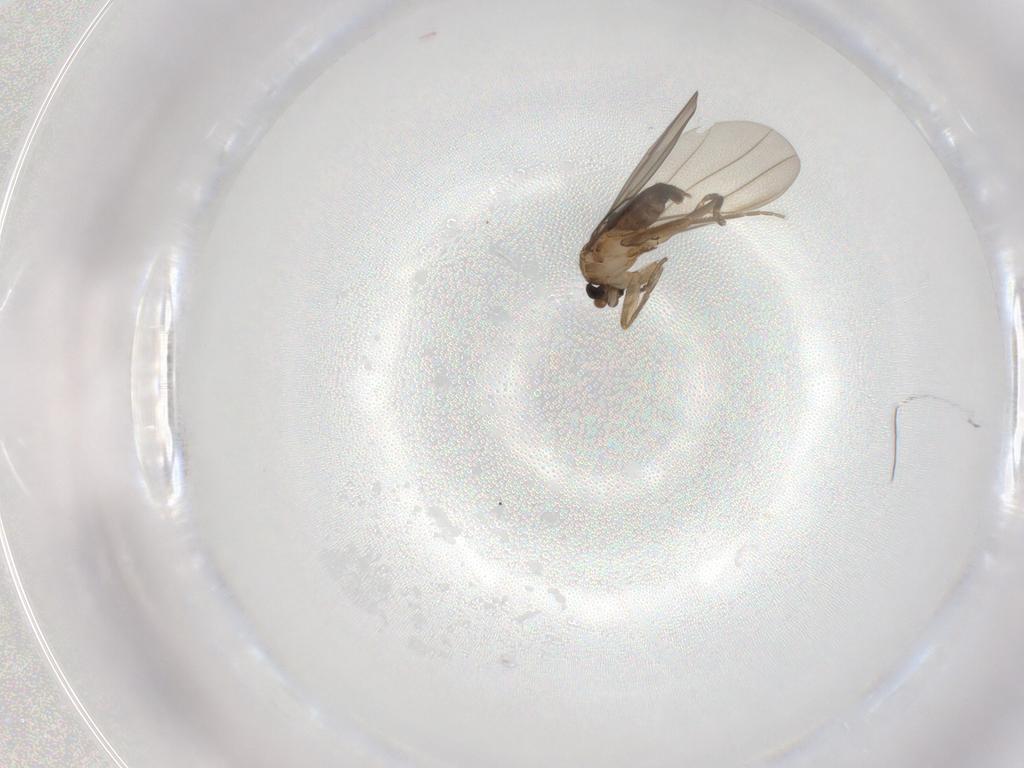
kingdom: Animalia
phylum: Arthropoda
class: Insecta
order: Diptera
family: Phoridae
